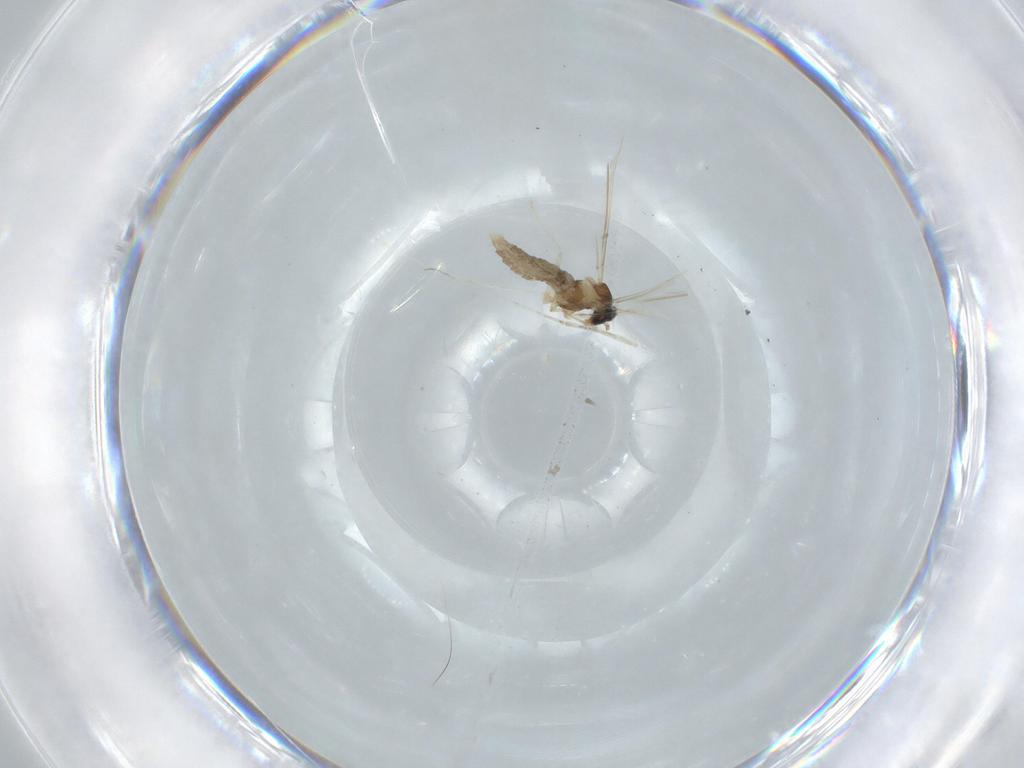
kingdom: Animalia
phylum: Arthropoda
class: Insecta
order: Diptera
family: Cecidomyiidae
